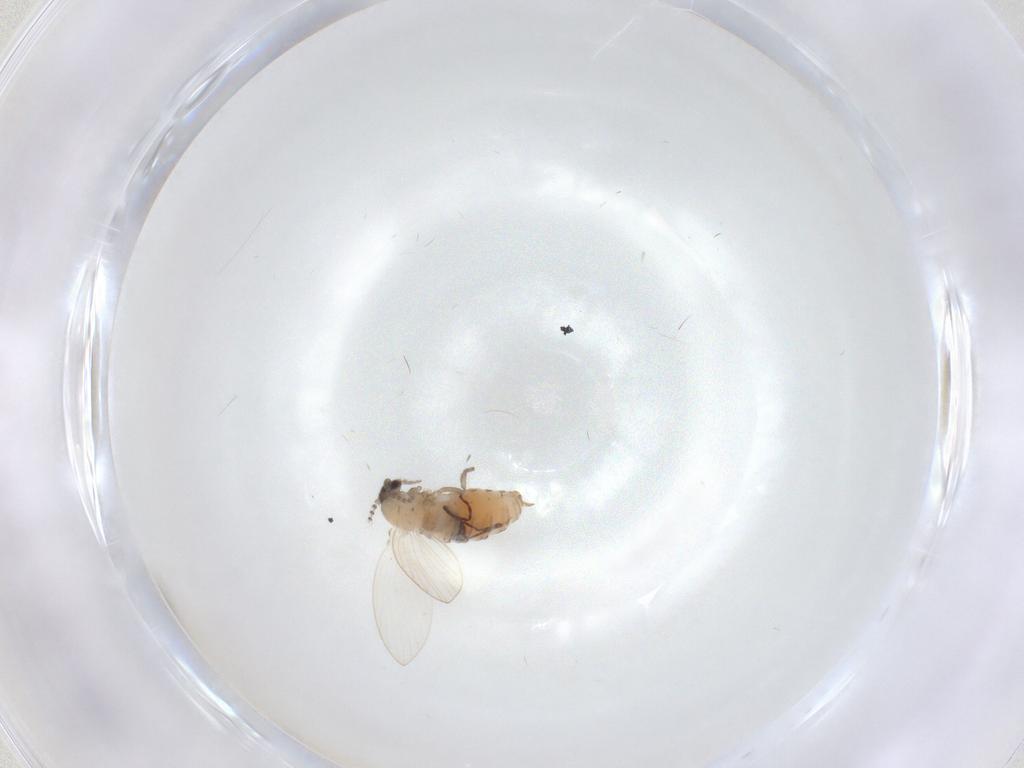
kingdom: Animalia
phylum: Arthropoda
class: Insecta
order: Diptera
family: Psychodidae
